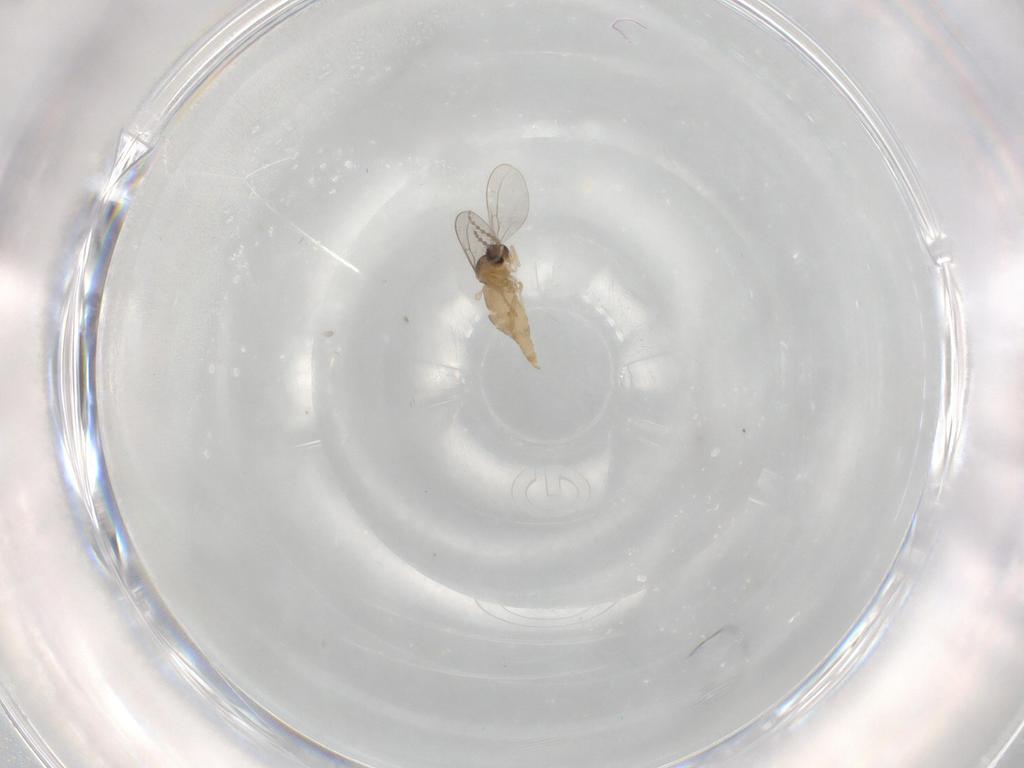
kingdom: Animalia
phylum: Arthropoda
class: Insecta
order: Diptera
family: Cecidomyiidae
